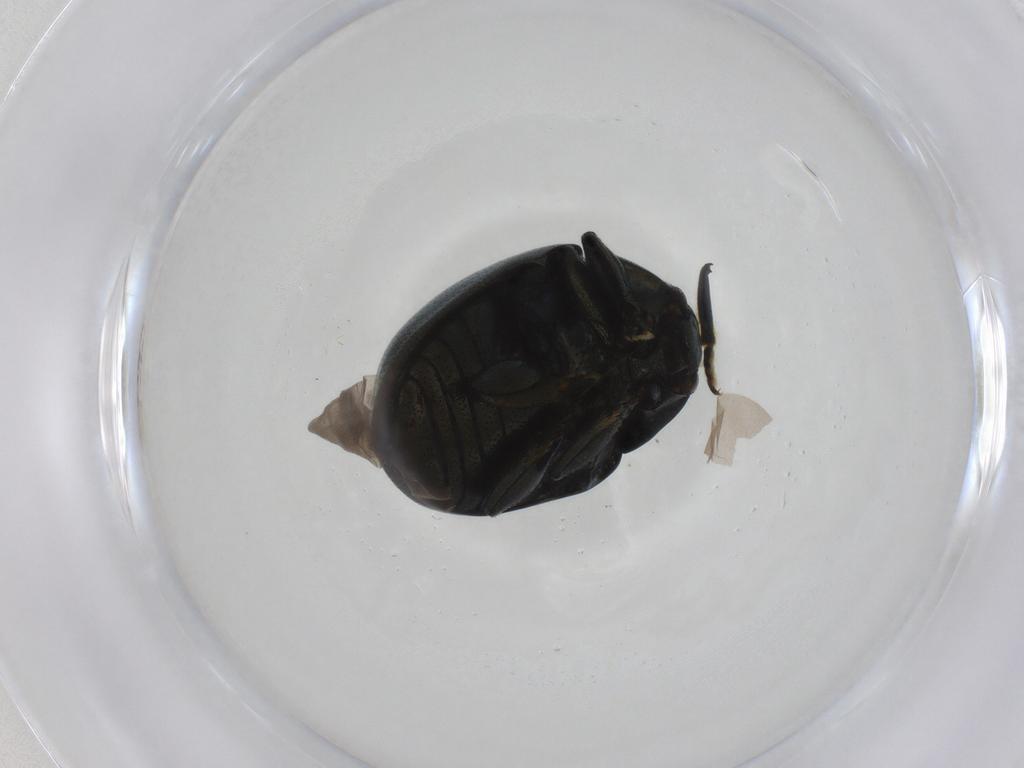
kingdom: Animalia
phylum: Arthropoda
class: Insecta
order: Coleoptera
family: Chrysomelidae
